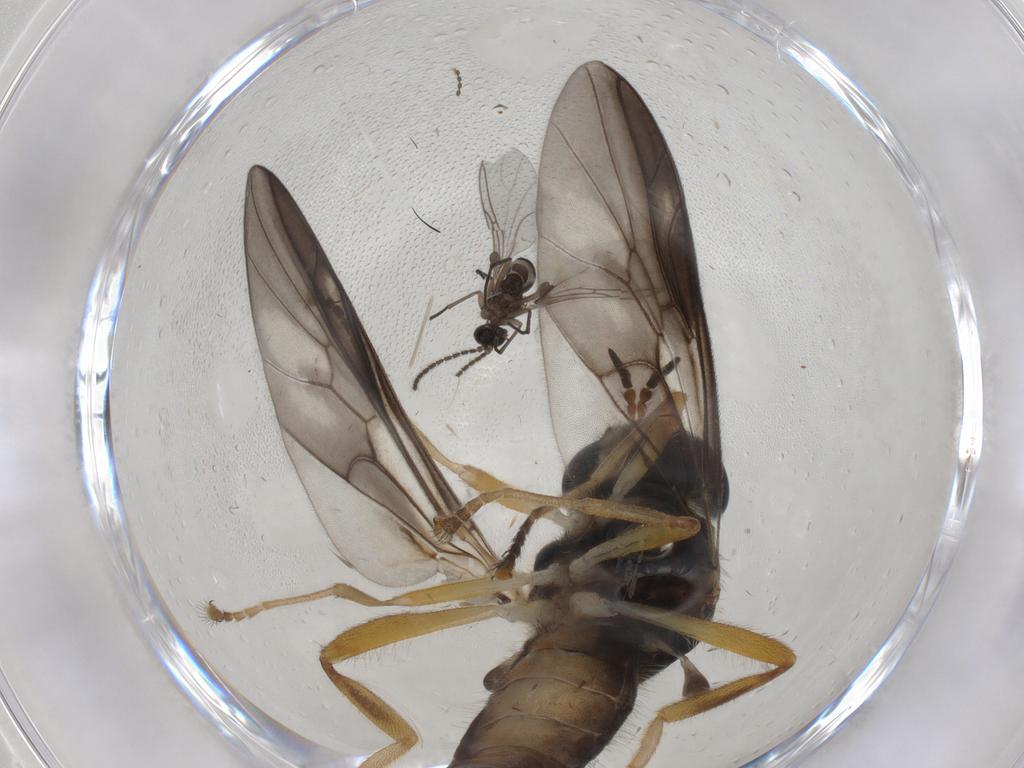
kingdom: Animalia
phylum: Arthropoda
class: Insecta
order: Diptera
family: Stratiomyidae
